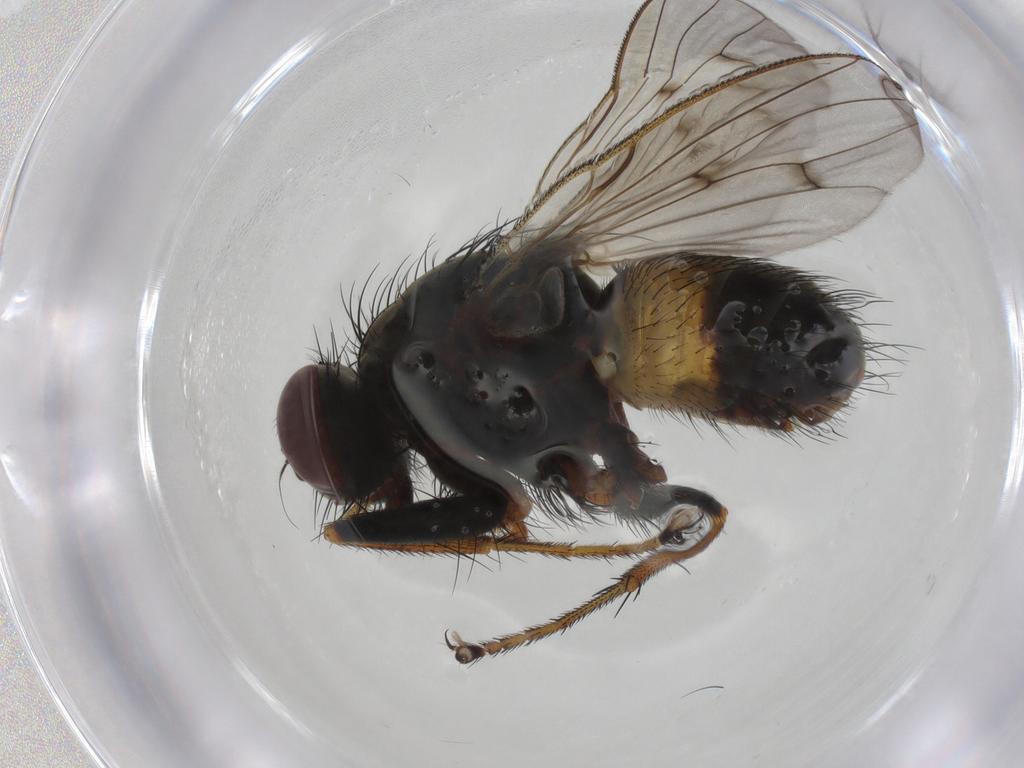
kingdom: Animalia
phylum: Arthropoda
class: Insecta
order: Diptera
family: Muscidae
